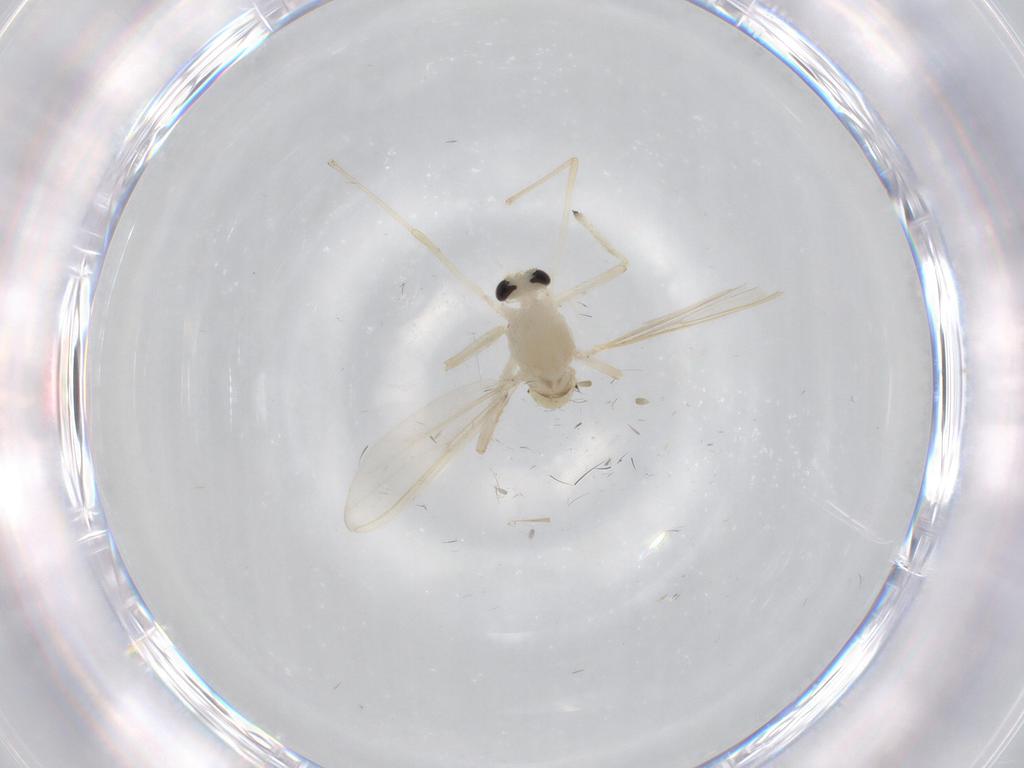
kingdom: Animalia
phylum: Arthropoda
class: Insecta
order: Diptera
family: Chironomidae
